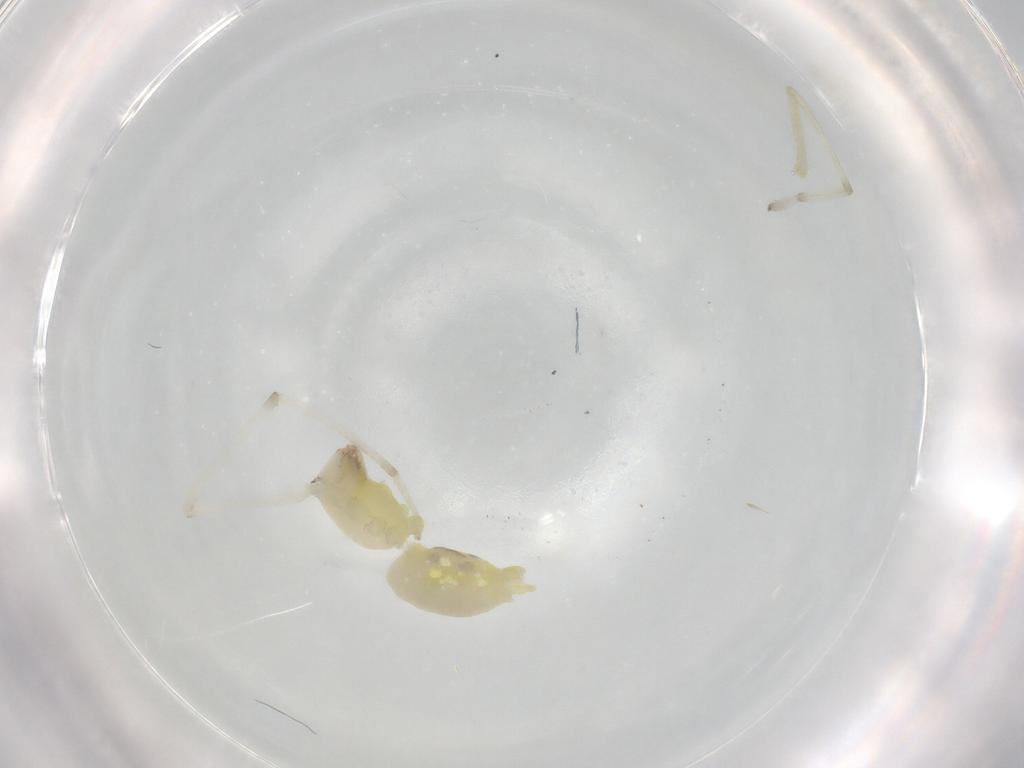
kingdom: Animalia
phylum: Arthropoda
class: Arachnida
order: Araneae
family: Cheiracanthiidae
